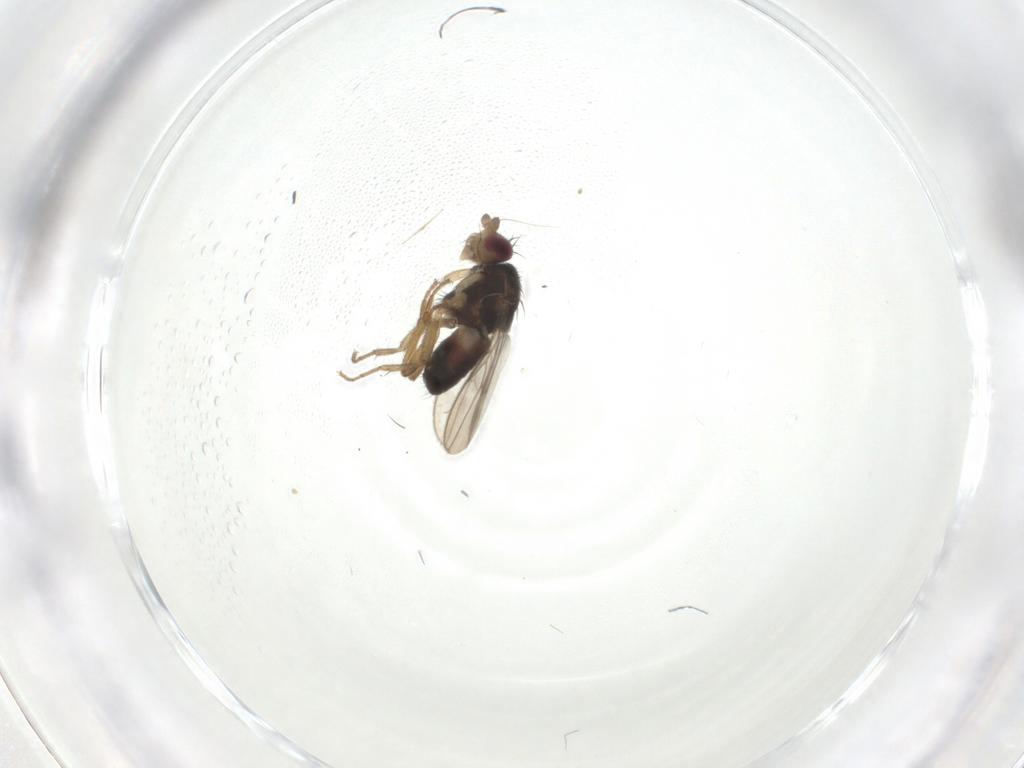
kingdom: Animalia
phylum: Arthropoda
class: Insecta
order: Diptera
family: Sphaeroceridae
